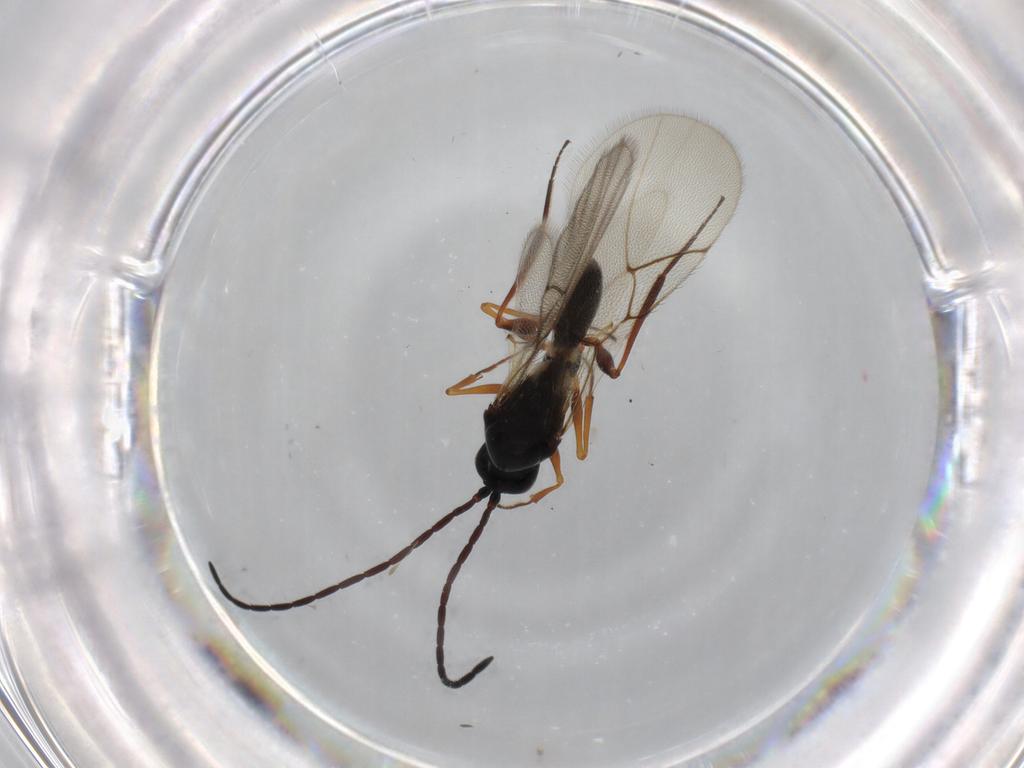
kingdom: Animalia
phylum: Arthropoda
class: Insecta
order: Hymenoptera
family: Figitidae
